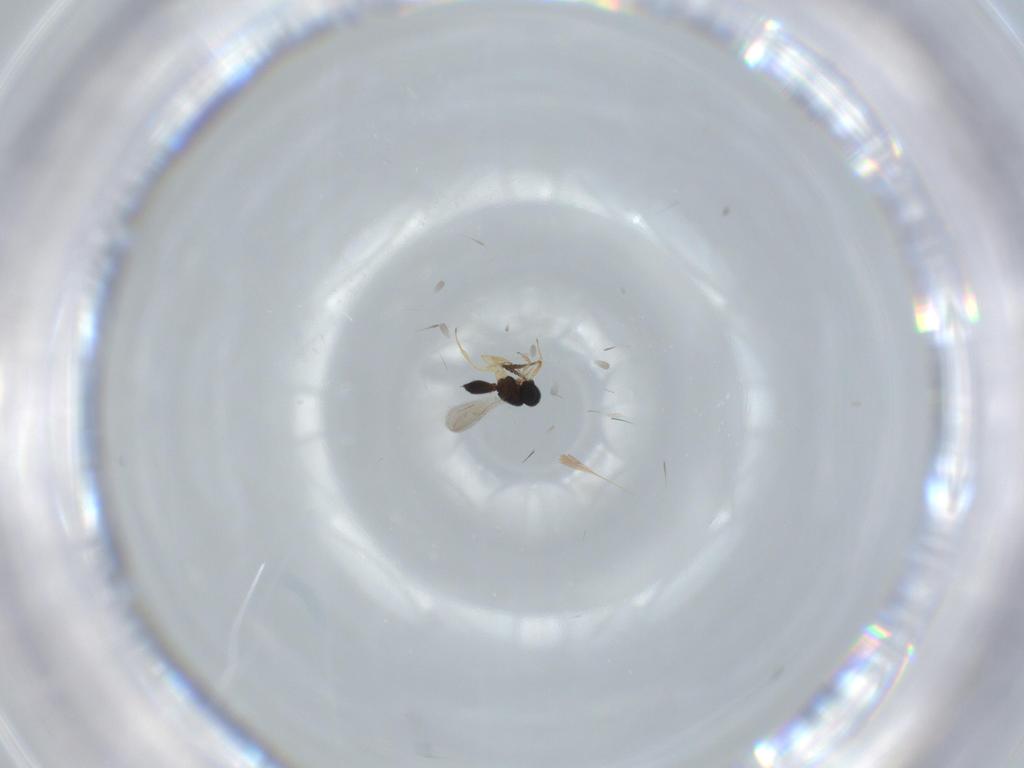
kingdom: Animalia
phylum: Arthropoda
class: Insecta
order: Hymenoptera
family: Scelionidae
